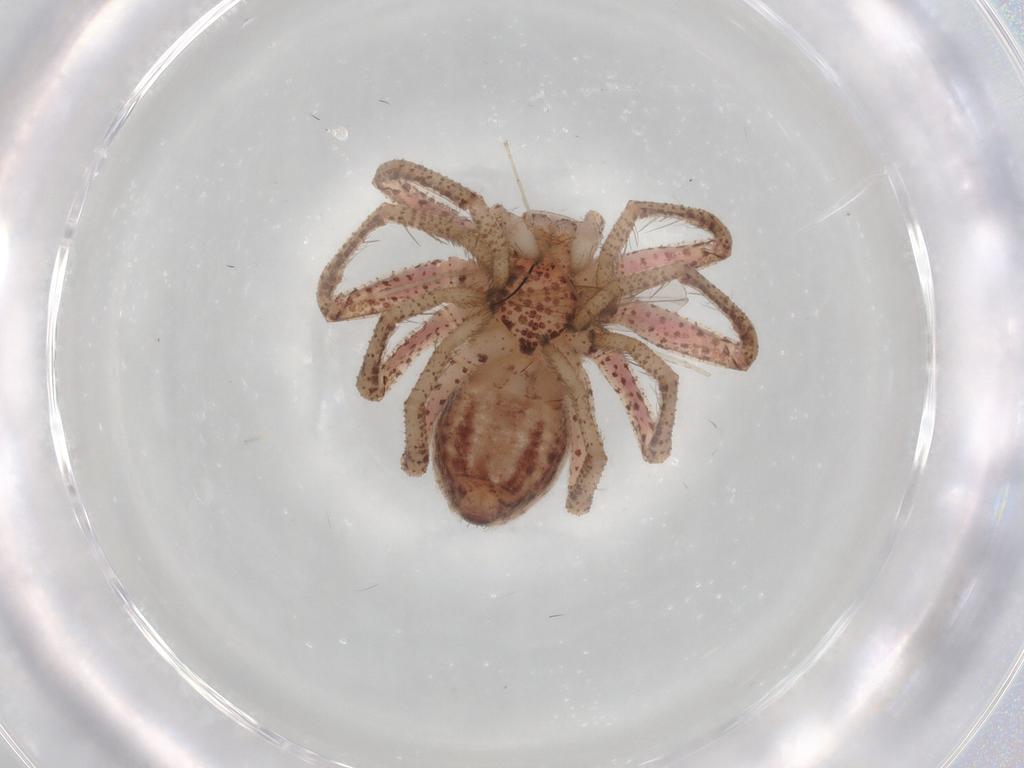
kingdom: Animalia
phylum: Arthropoda
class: Arachnida
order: Araneae
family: Philodromidae
